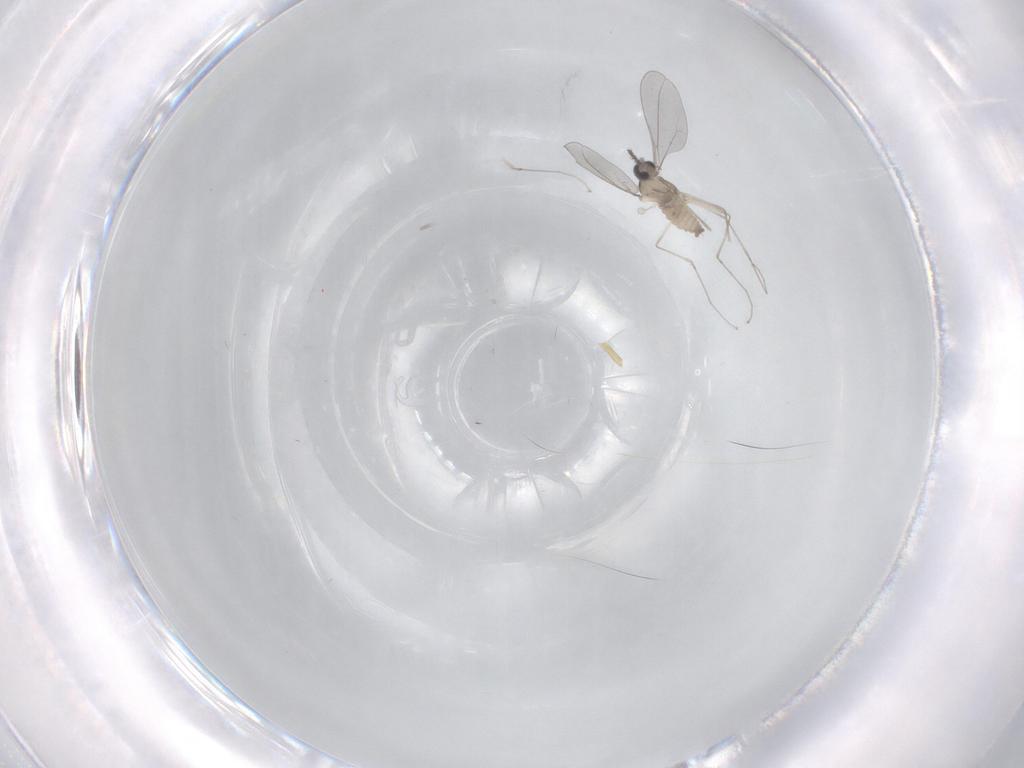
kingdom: Animalia
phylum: Arthropoda
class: Insecta
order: Diptera
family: Cecidomyiidae
